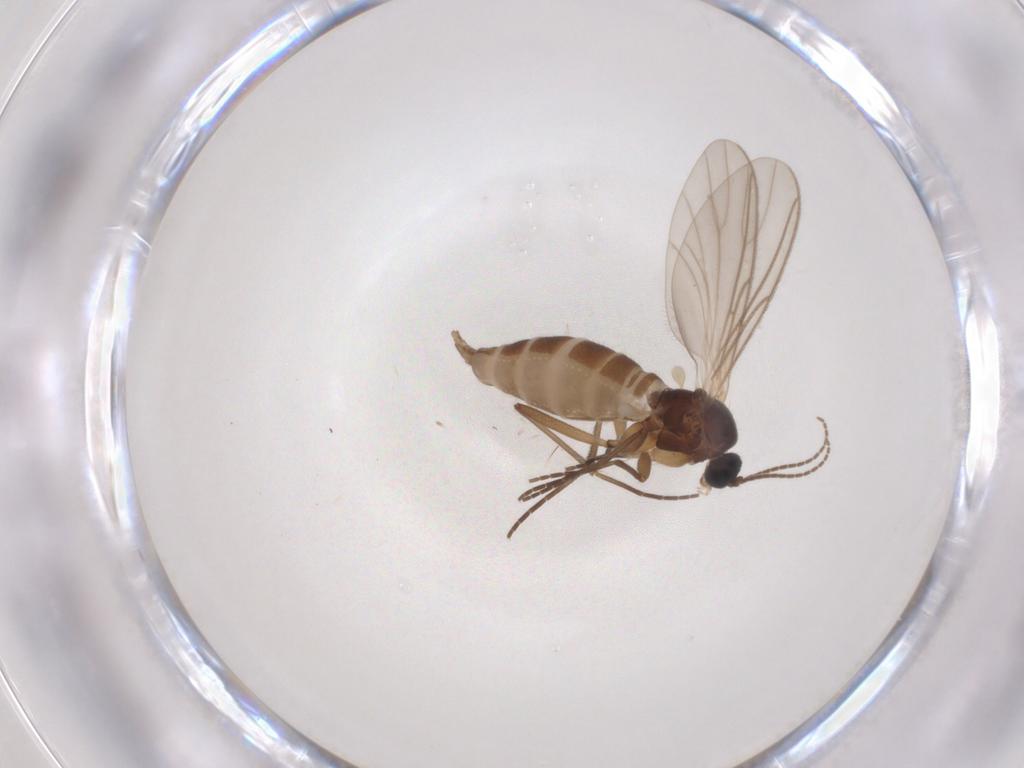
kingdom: Animalia
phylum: Arthropoda
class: Insecta
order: Diptera
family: Sciaridae
